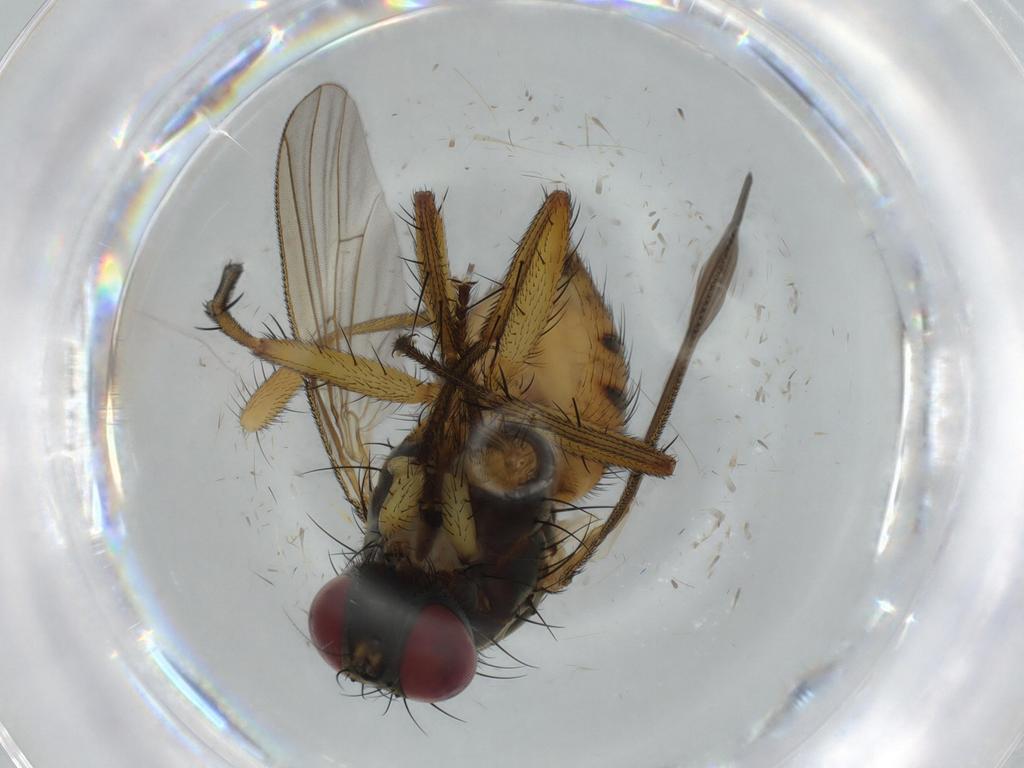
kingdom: Animalia
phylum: Arthropoda
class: Insecta
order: Diptera
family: Muscidae
